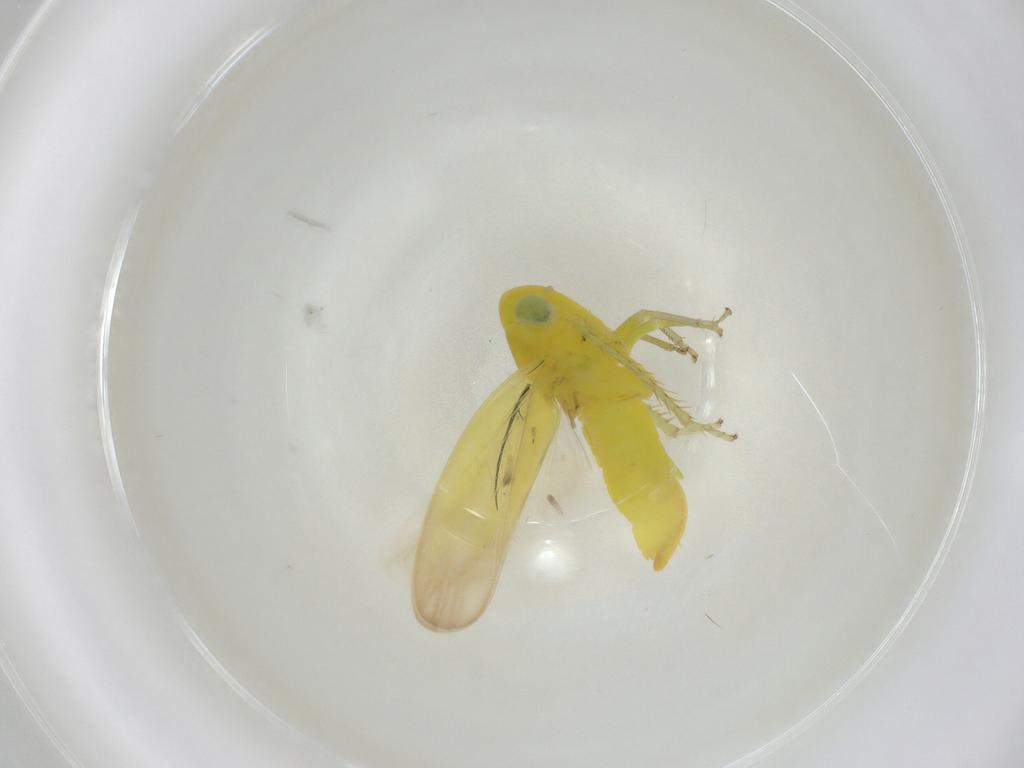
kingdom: Animalia
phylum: Arthropoda
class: Insecta
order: Hemiptera
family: Cicadellidae
